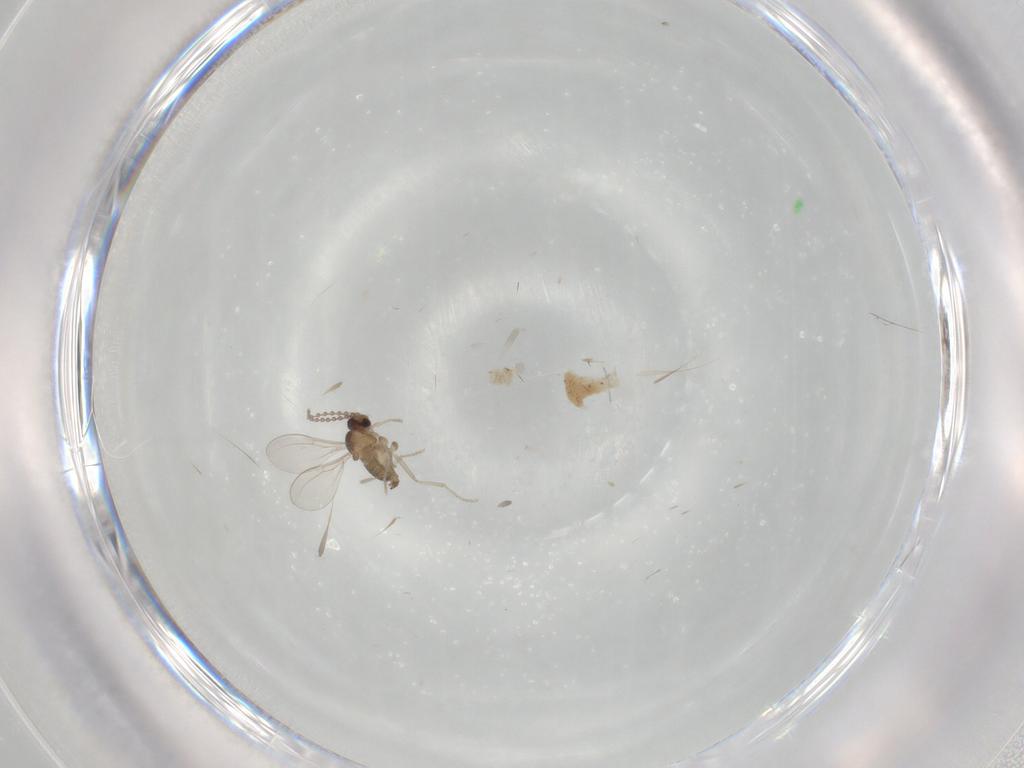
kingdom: Animalia
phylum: Arthropoda
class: Insecta
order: Diptera
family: Cecidomyiidae
